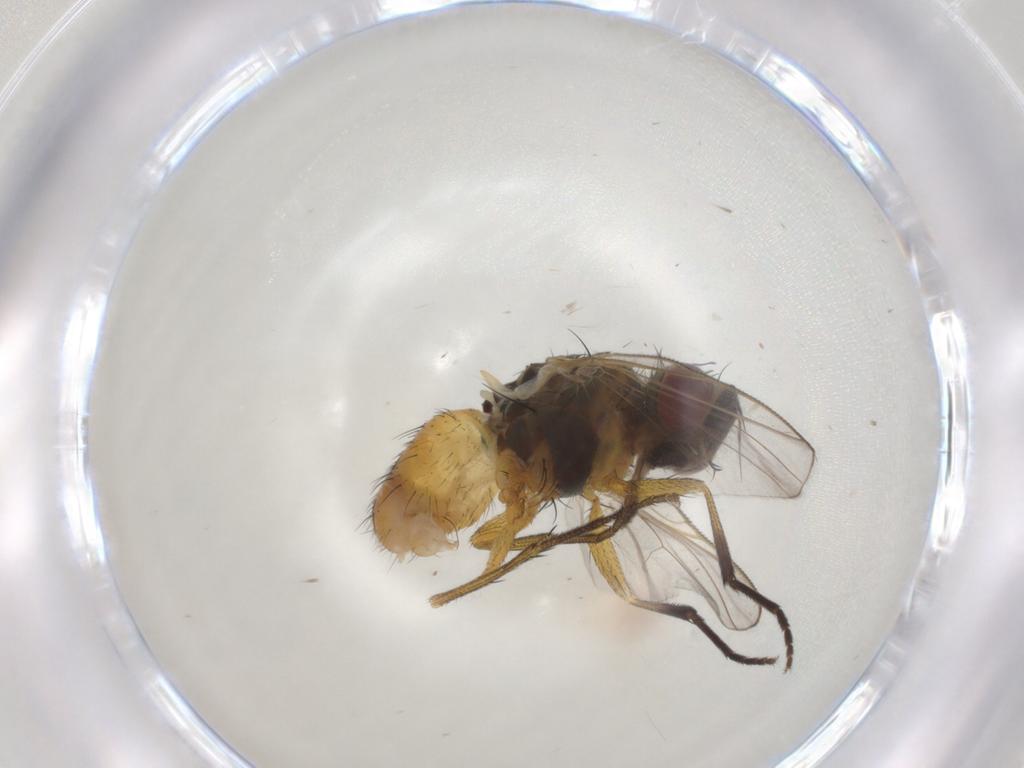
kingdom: Animalia
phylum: Arthropoda
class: Insecta
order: Diptera
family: Muscidae
